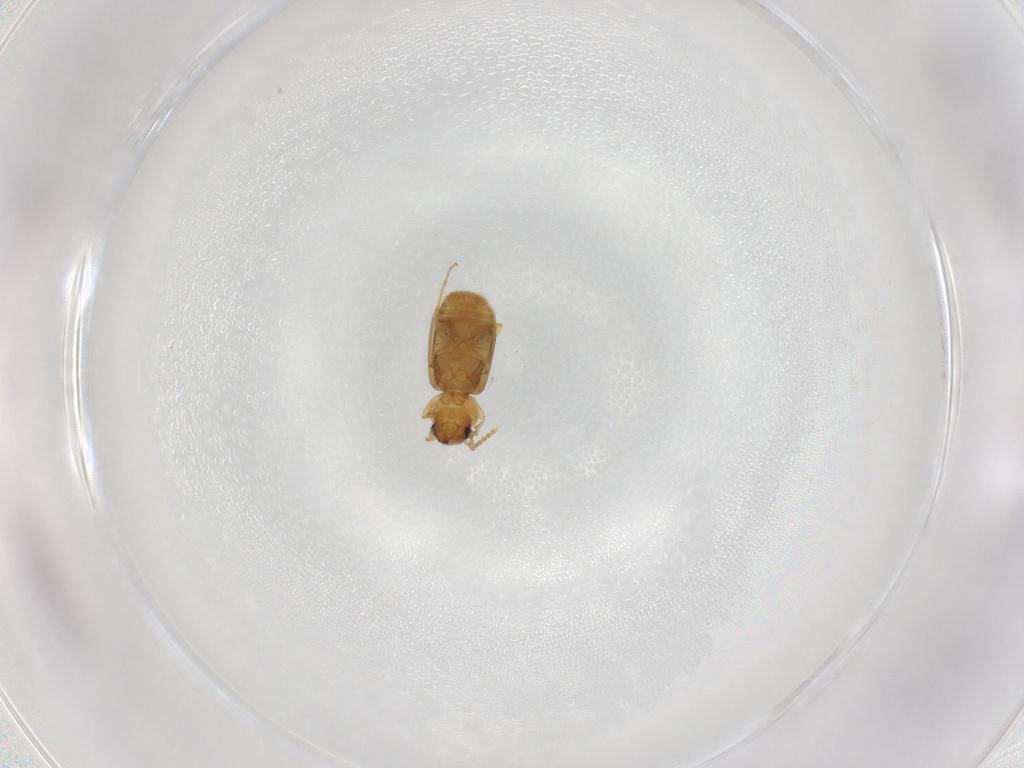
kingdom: Animalia
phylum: Arthropoda
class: Insecta
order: Coleoptera
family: Carabidae
